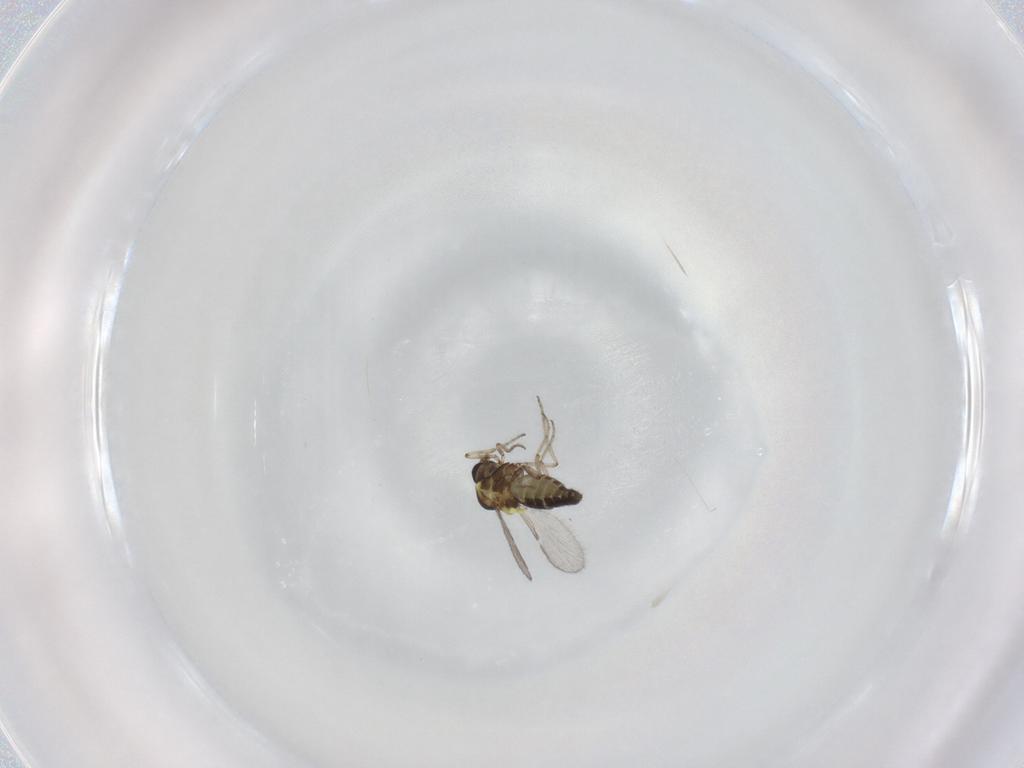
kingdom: Animalia
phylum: Arthropoda
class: Insecta
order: Diptera
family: Ceratopogonidae
